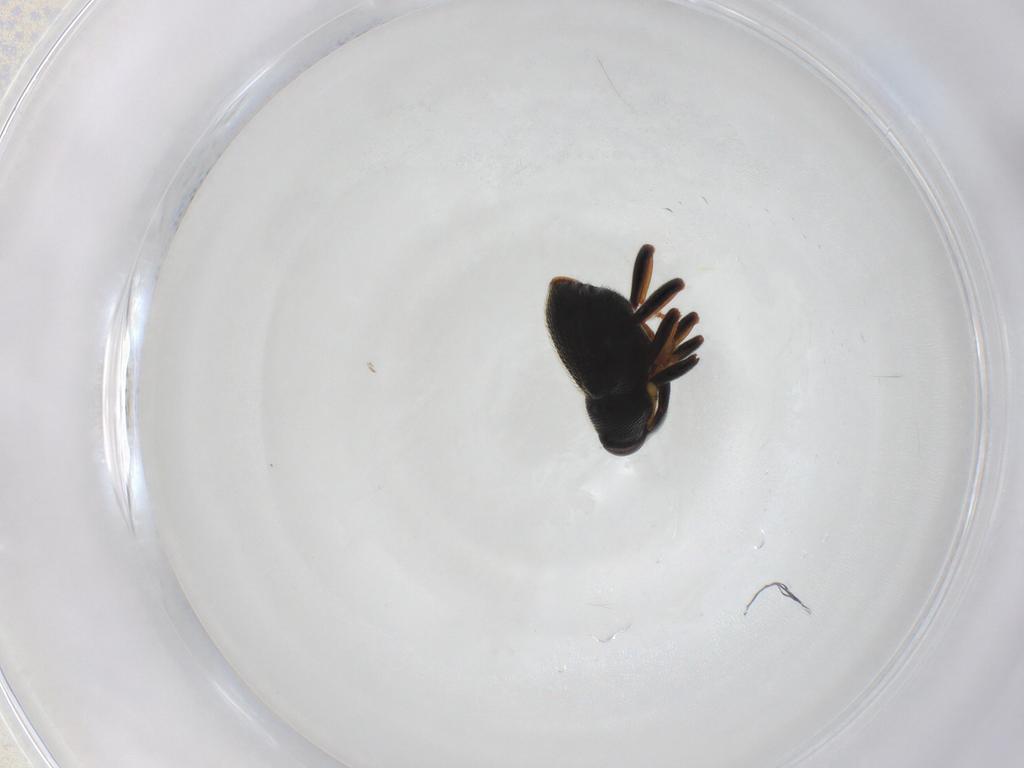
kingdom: Animalia
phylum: Arthropoda
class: Insecta
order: Coleoptera
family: Curculionidae
